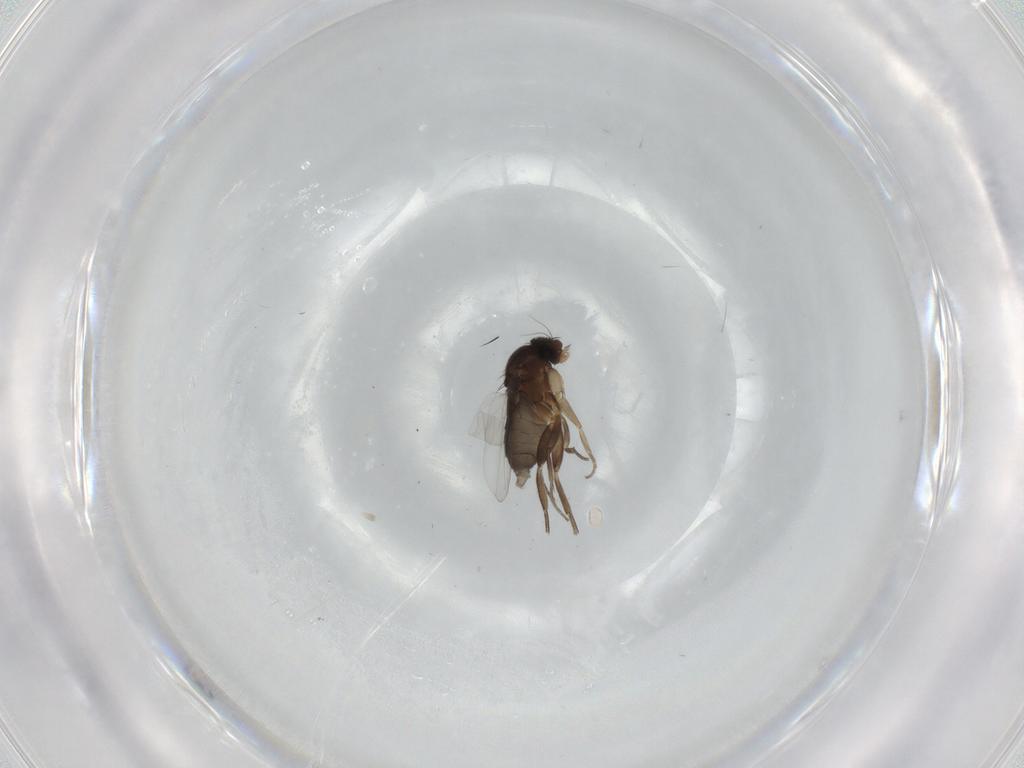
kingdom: Animalia
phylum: Arthropoda
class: Insecta
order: Diptera
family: Phoridae
